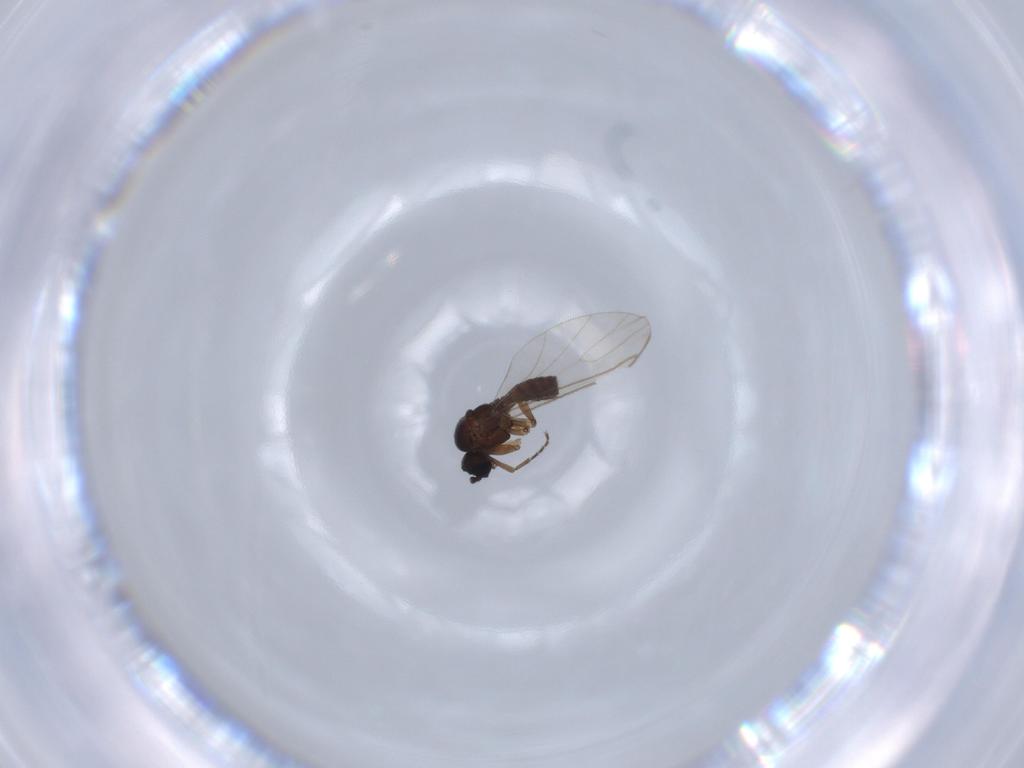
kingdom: Animalia
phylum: Arthropoda
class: Insecta
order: Diptera
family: Sciaridae
